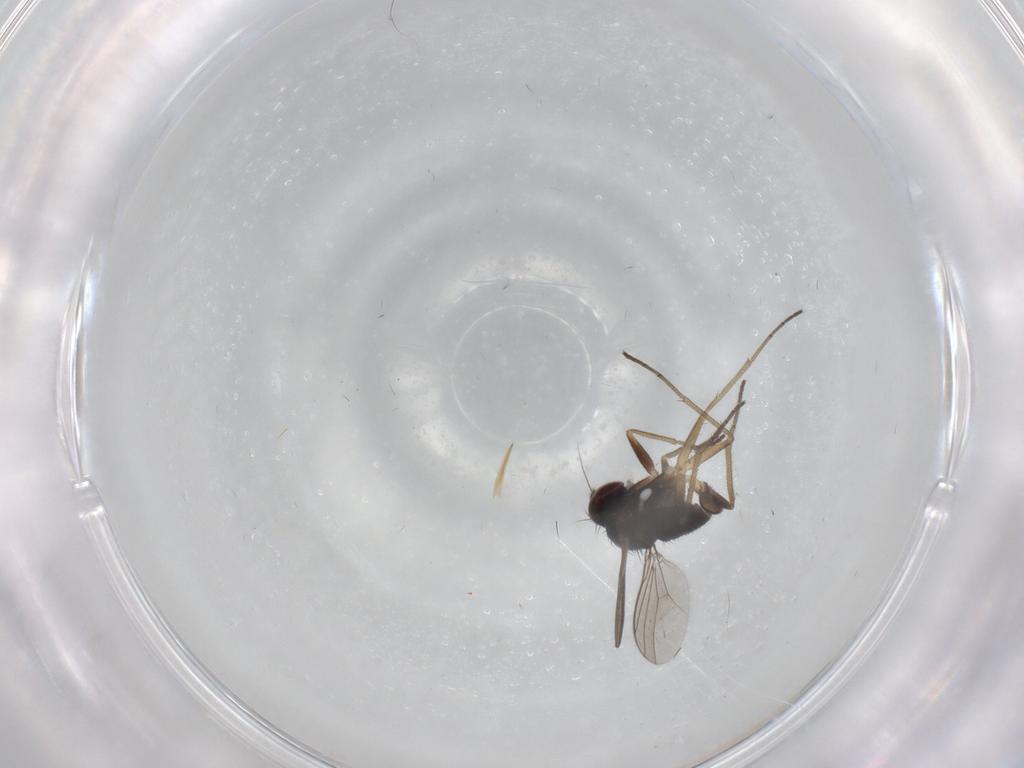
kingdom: Animalia
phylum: Arthropoda
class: Insecta
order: Diptera
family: Dolichopodidae
